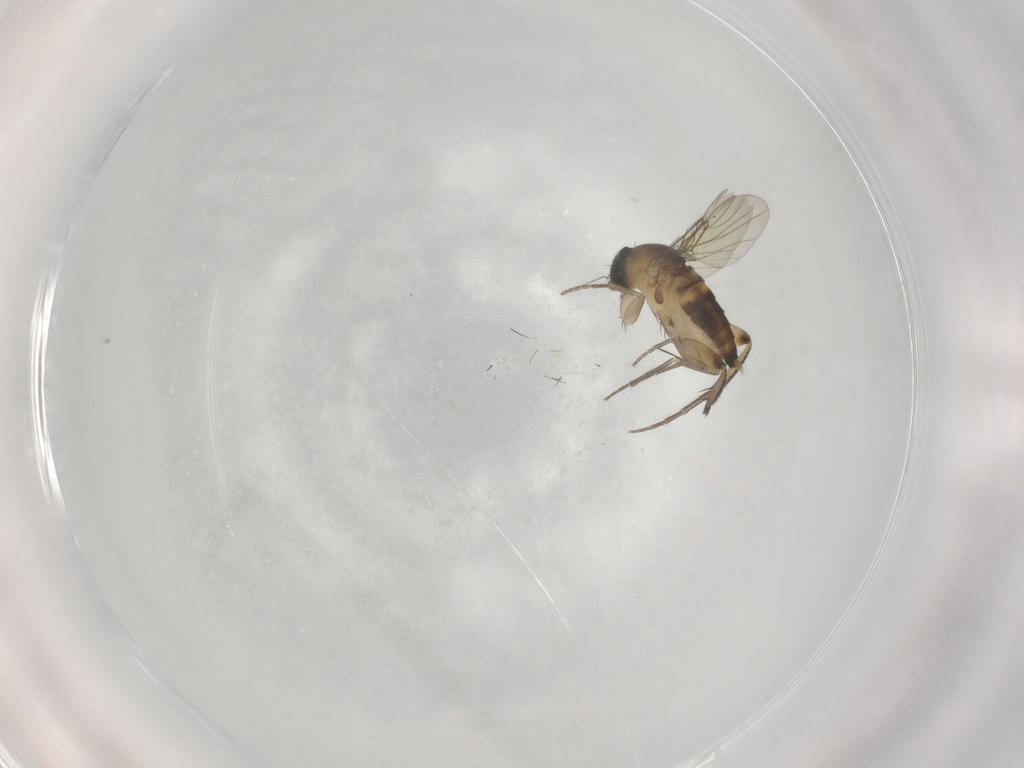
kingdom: Animalia
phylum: Arthropoda
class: Insecta
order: Diptera
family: Phoridae
